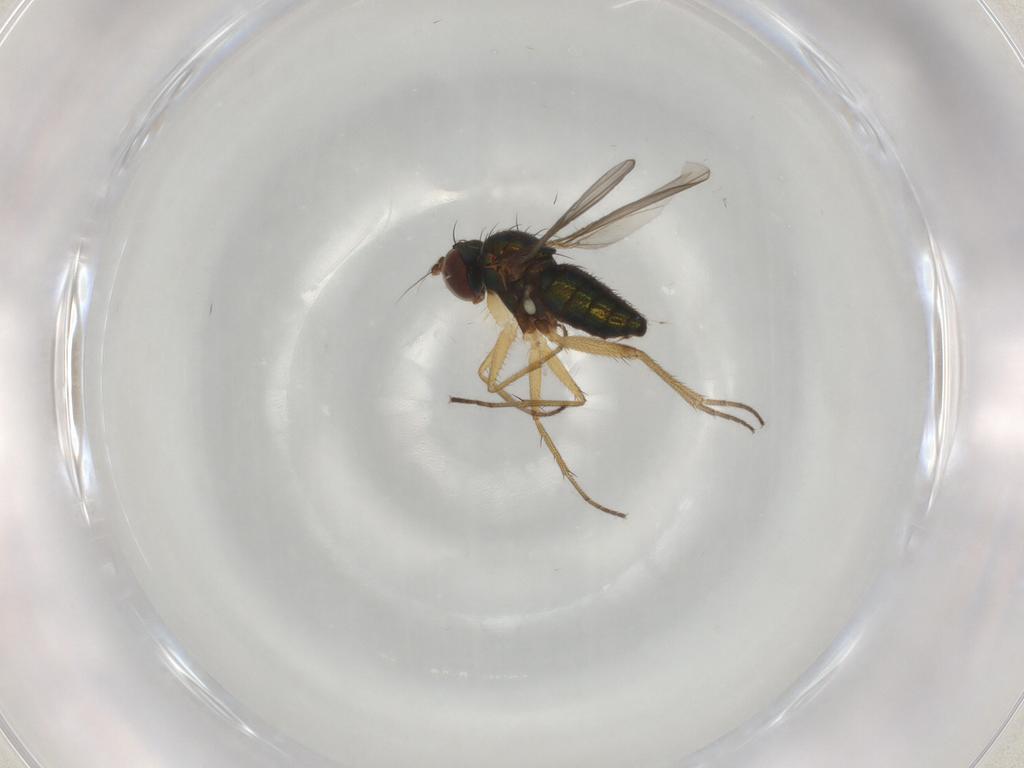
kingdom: Animalia
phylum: Arthropoda
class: Insecta
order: Diptera
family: Dolichopodidae
